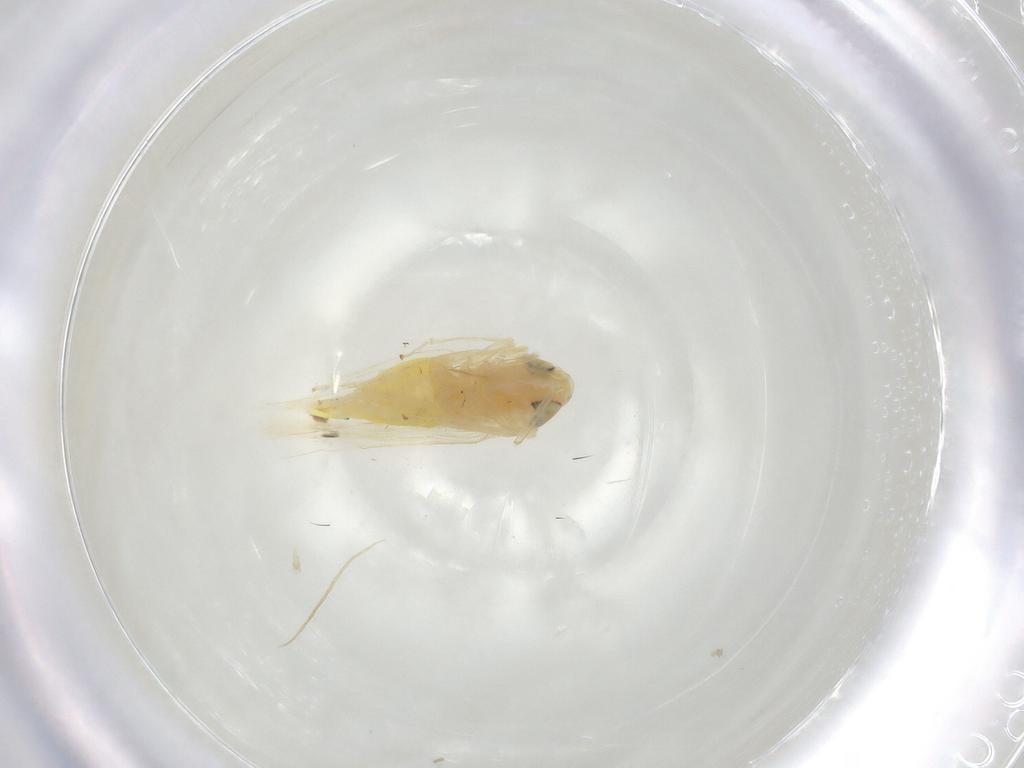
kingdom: Animalia
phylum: Arthropoda
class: Insecta
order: Hemiptera
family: Cicadellidae
